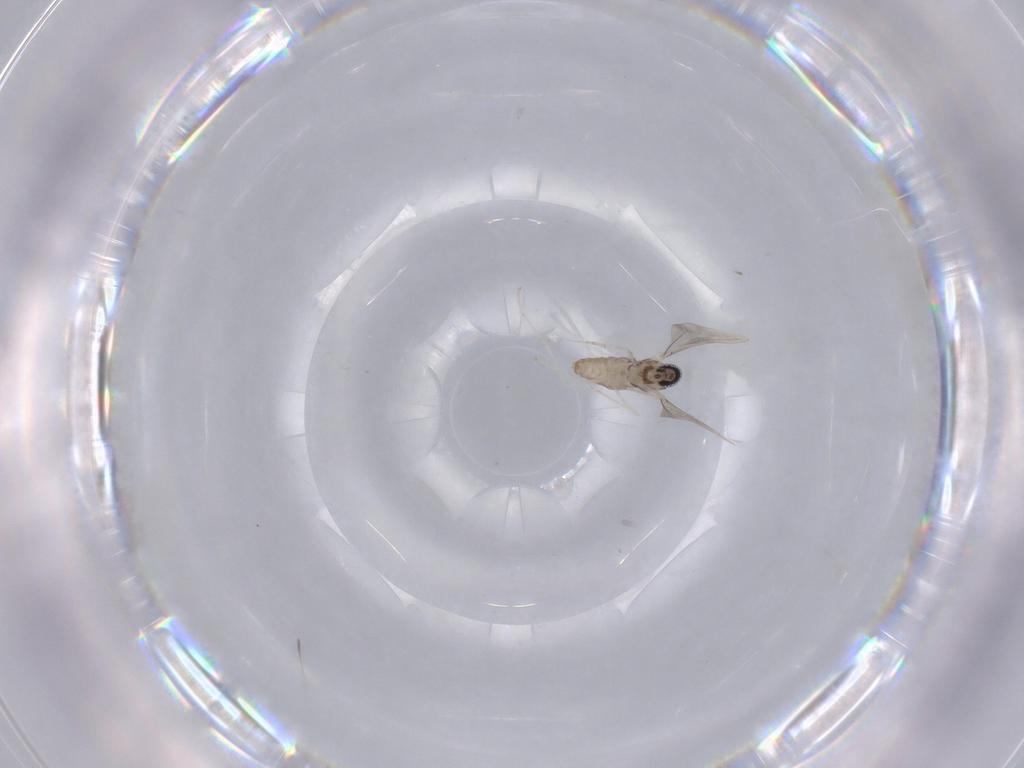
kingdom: Animalia
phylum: Arthropoda
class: Insecta
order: Diptera
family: Cecidomyiidae
